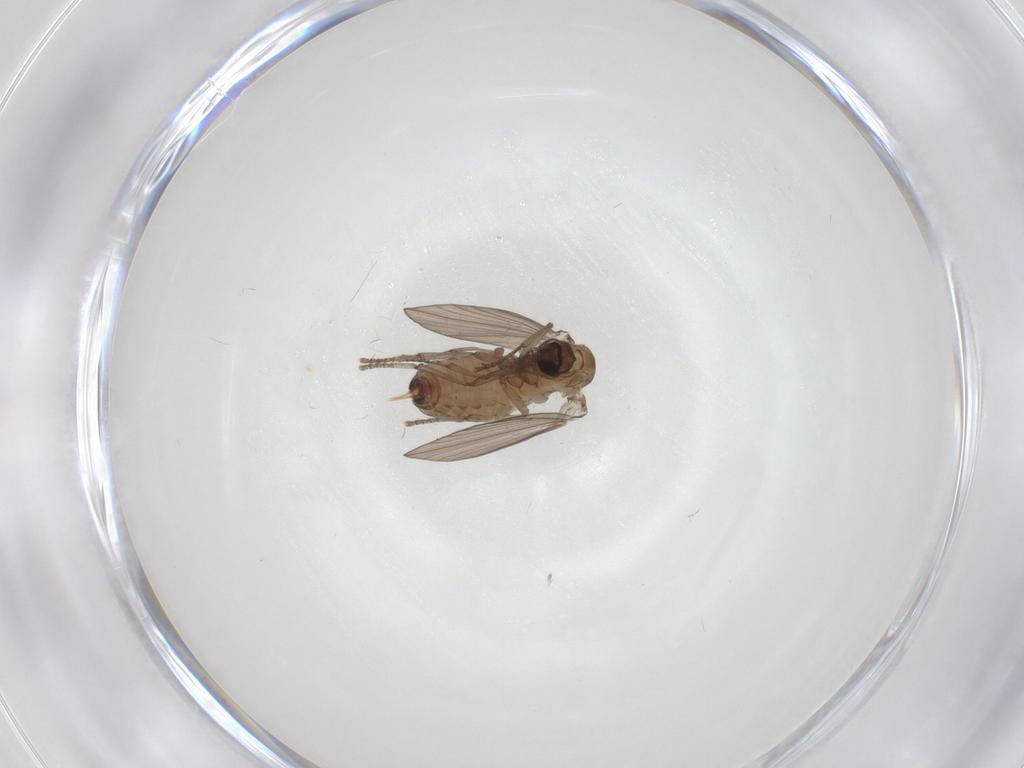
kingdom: Animalia
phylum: Arthropoda
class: Insecta
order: Diptera
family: Psychodidae
